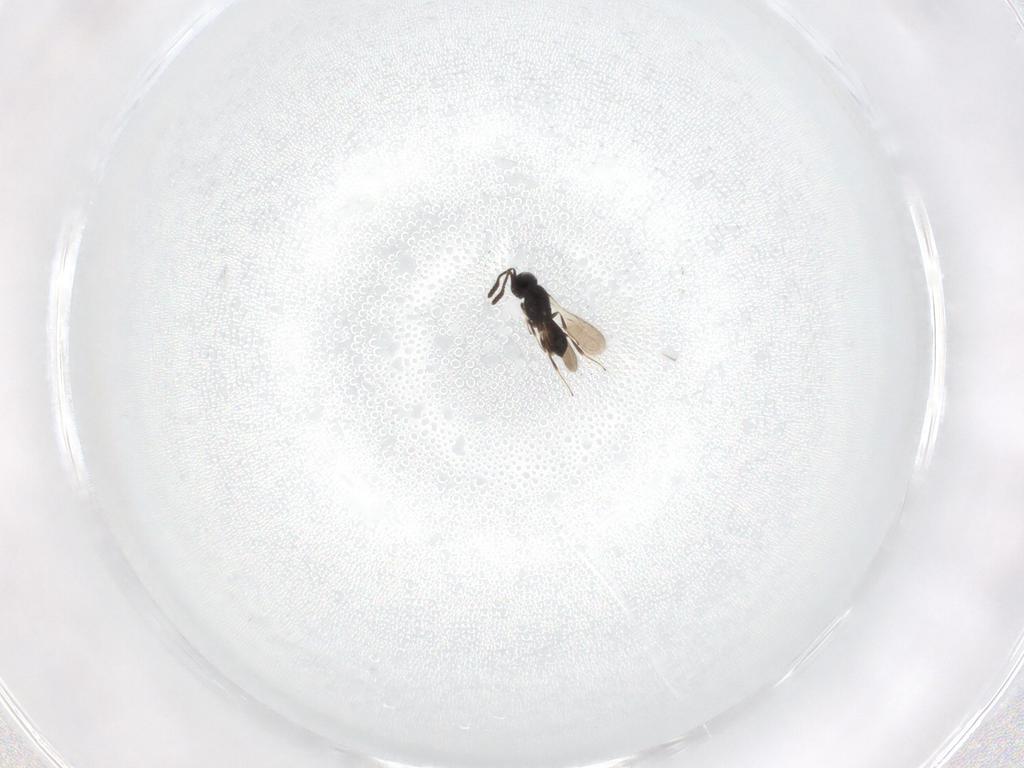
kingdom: Animalia
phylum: Arthropoda
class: Insecta
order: Hymenoptera
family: Scelionidae
